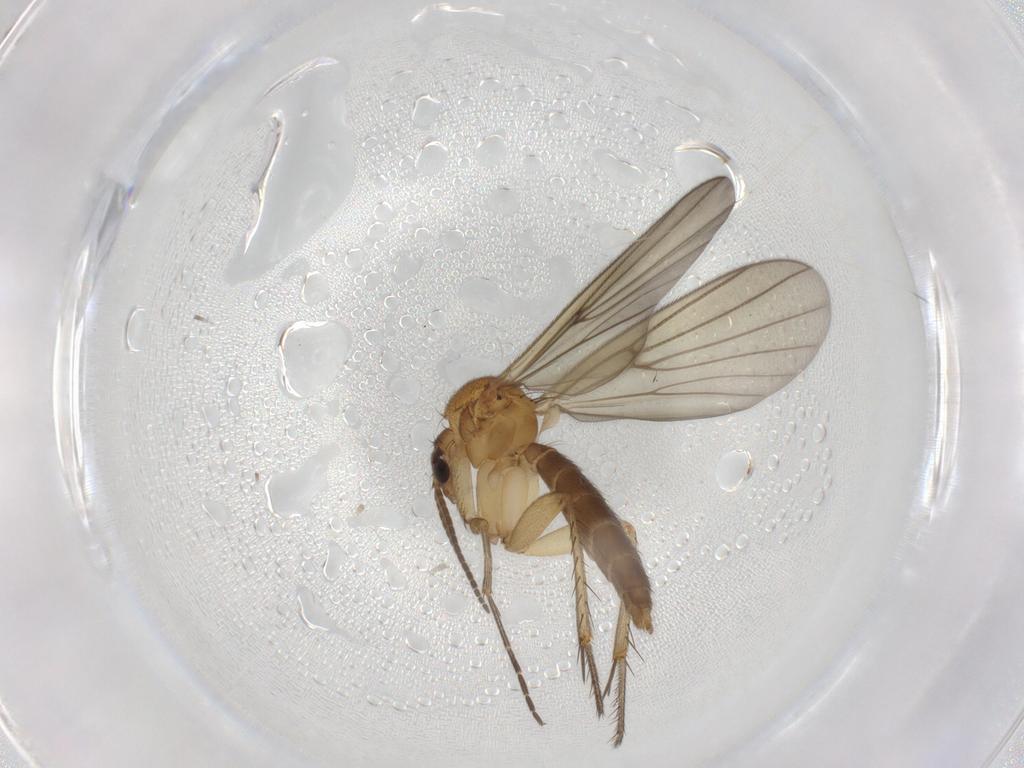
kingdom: Animalia
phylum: Arthropoda
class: Insecta
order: Diptera
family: Mycetophilidae
